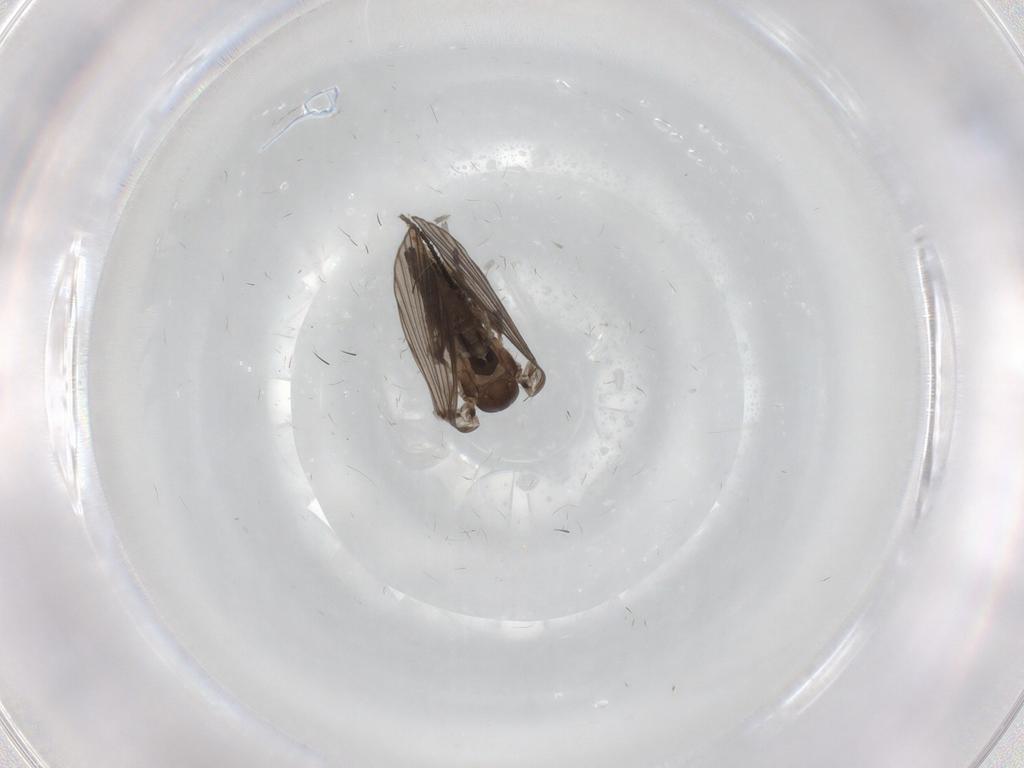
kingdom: Animalia
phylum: Arthropoda
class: Insecta
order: Diptera
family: Sciaridae
